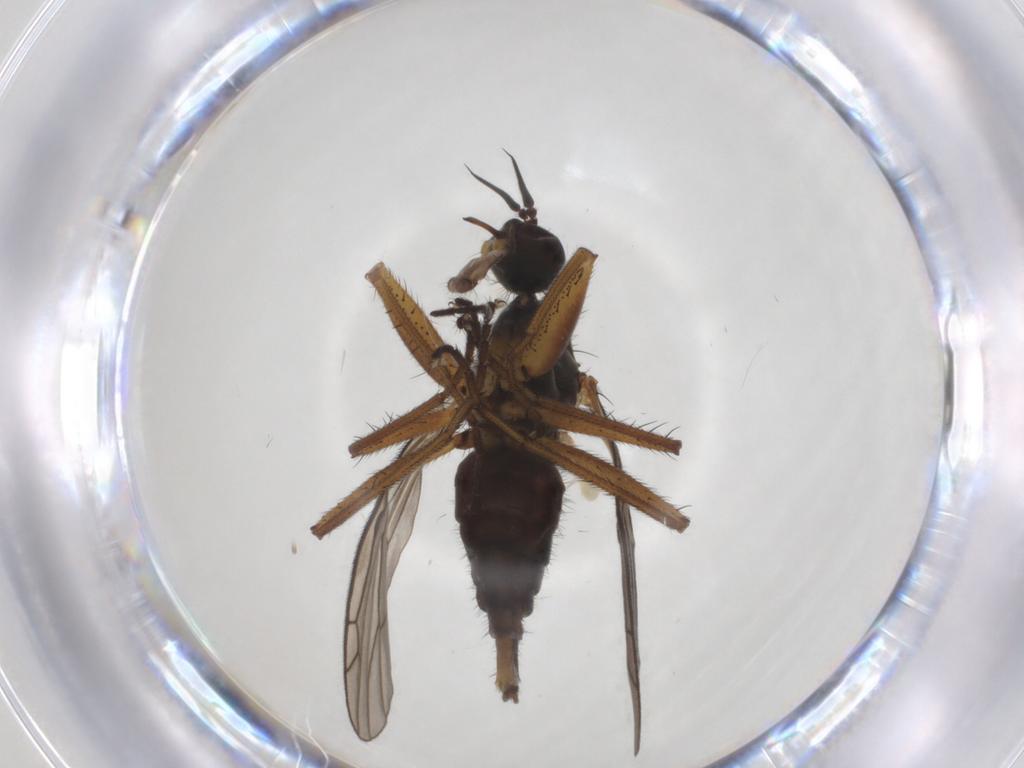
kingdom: Animalia
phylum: Arthropoda
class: Insecta
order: Diptera
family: Empididae
